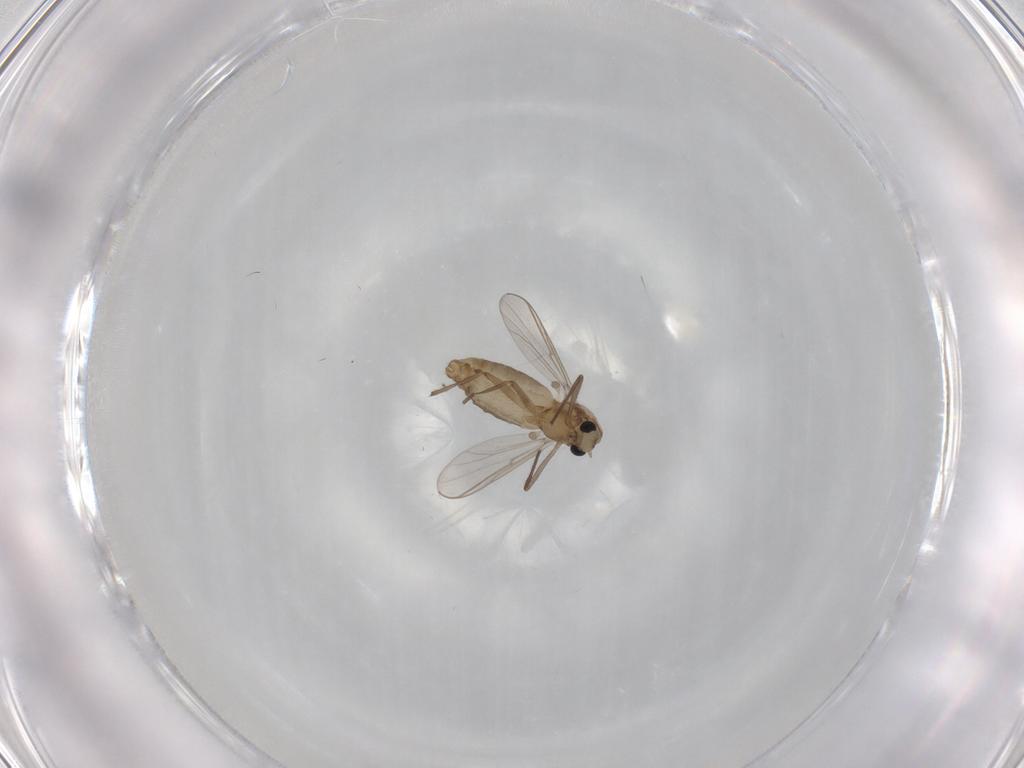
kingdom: Animalia
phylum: Arthropoda
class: Insecta
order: Diptera
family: Chironomidae
